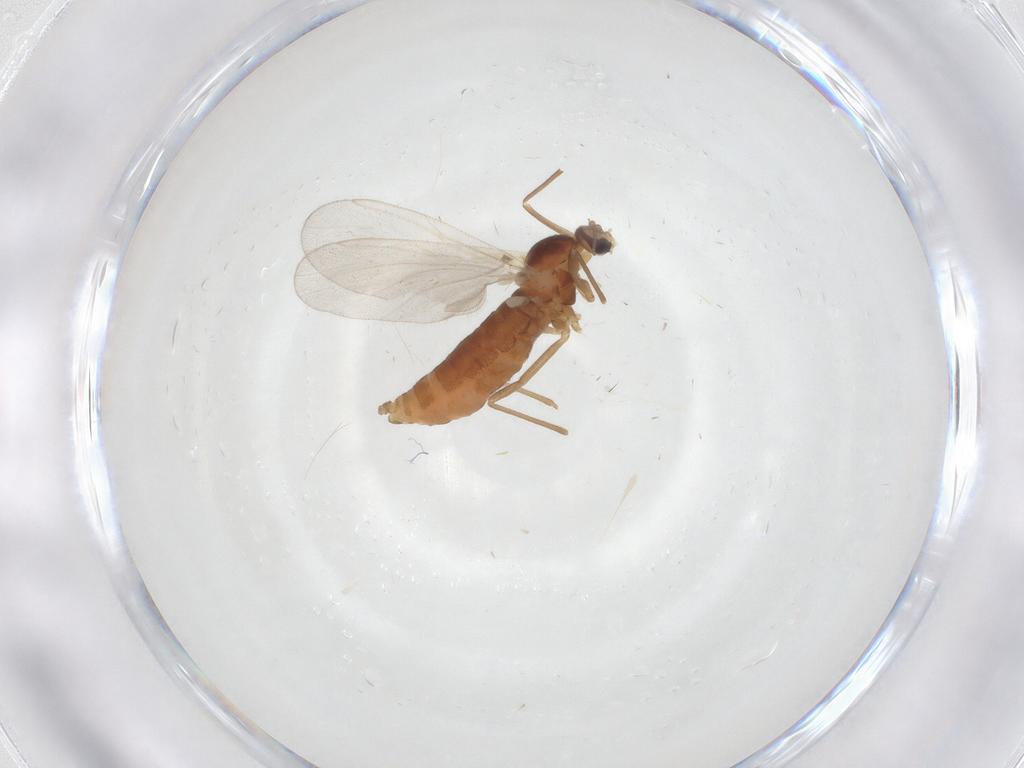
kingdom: Animalia
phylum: Arthropoda
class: Insecta
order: Diptera
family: Cecidomyiidae
